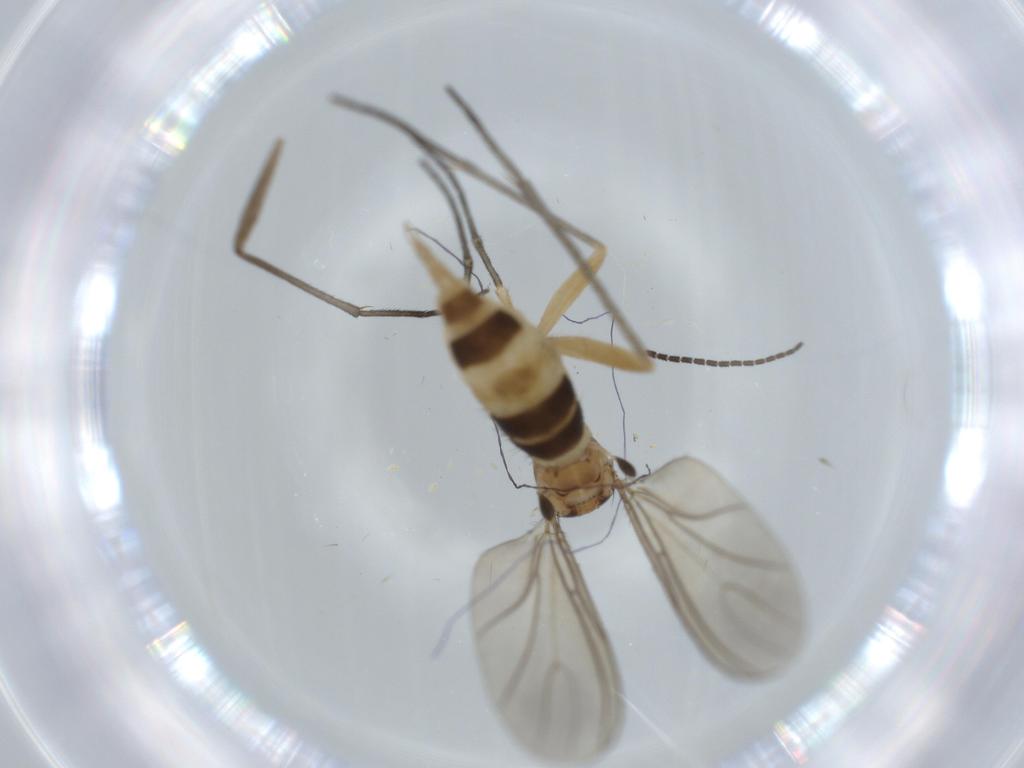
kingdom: Animalia
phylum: Arthropoda
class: Insecta
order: Diptera
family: Sciaridae
